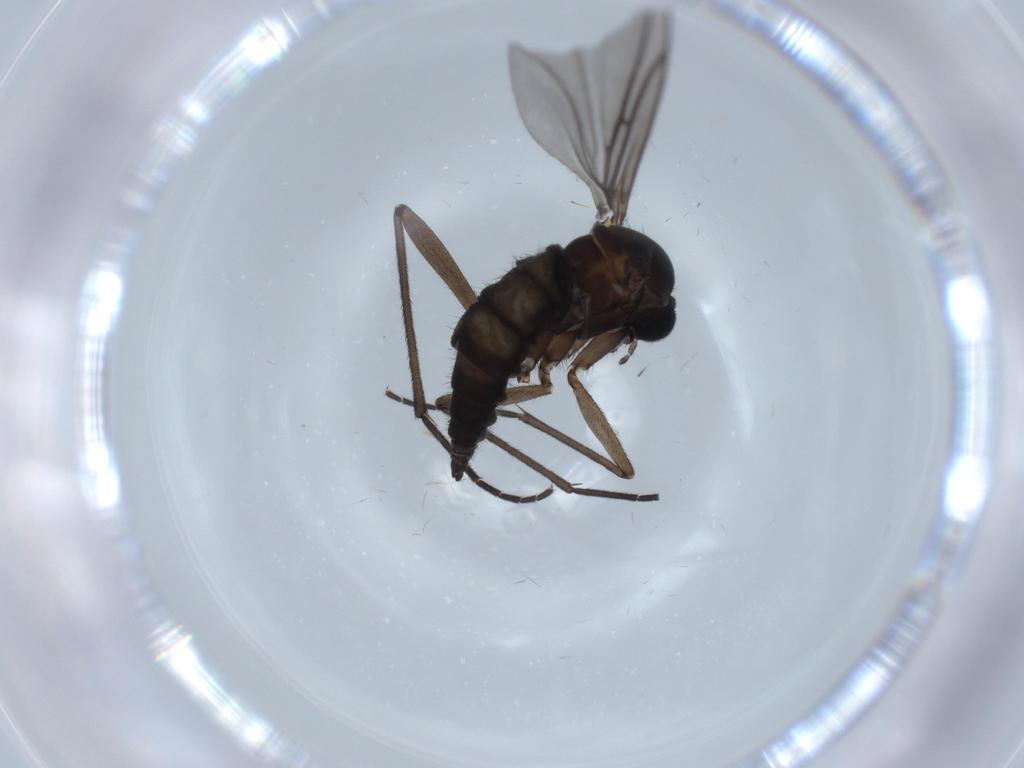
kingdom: Animalia
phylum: Arthropoda
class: Insecta
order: Diptera
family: Sciaridae
